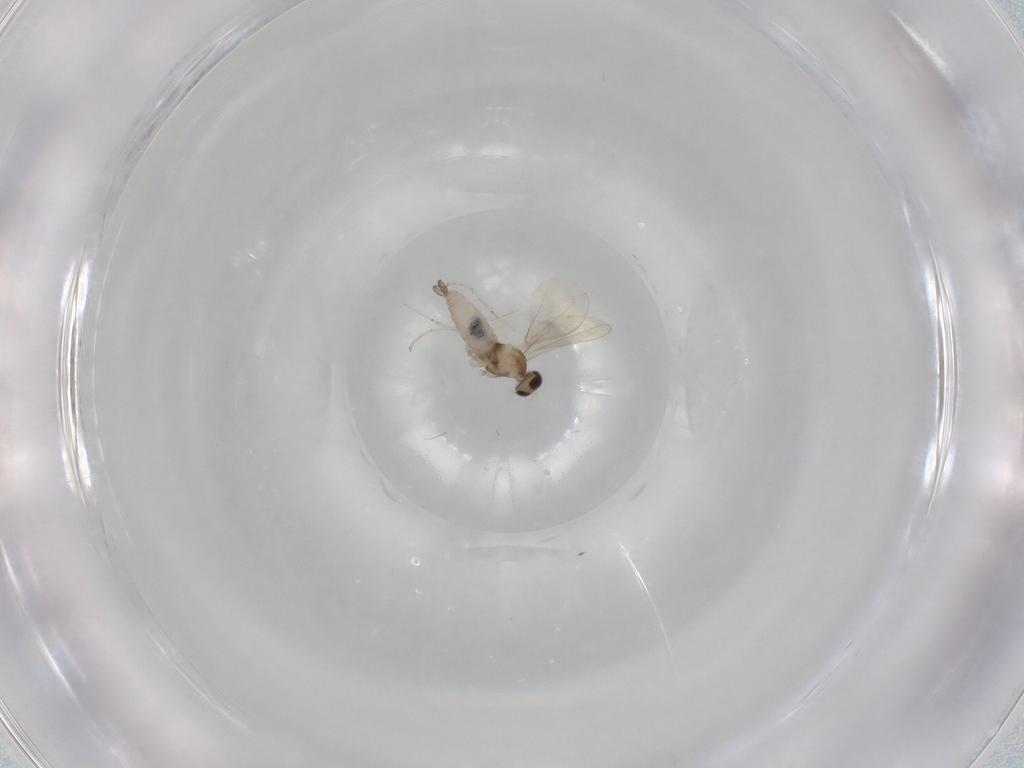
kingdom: Animalia
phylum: Arthropoda
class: Insecta
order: Diptera
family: Cecidomyiidae
